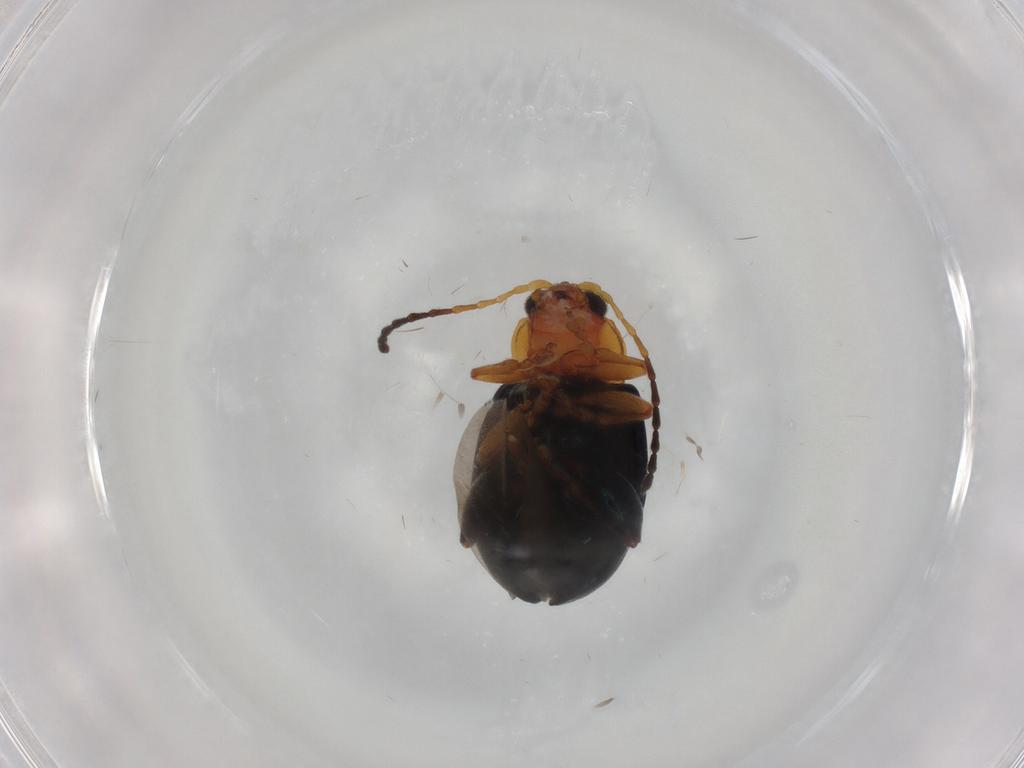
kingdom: Animalia
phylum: Arthropoda
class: Insecta
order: Coleoptera
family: Chrysomelidae
